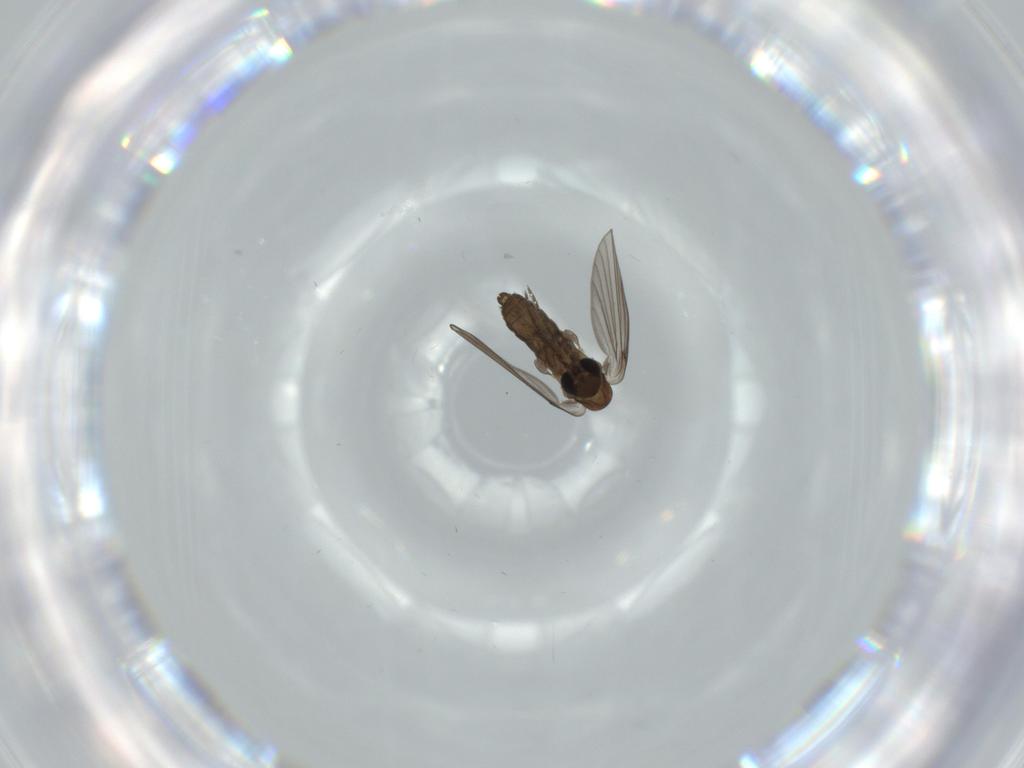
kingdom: Animalia
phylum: Arthropoda
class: Insecta
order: Diptera
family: Psychodidae
